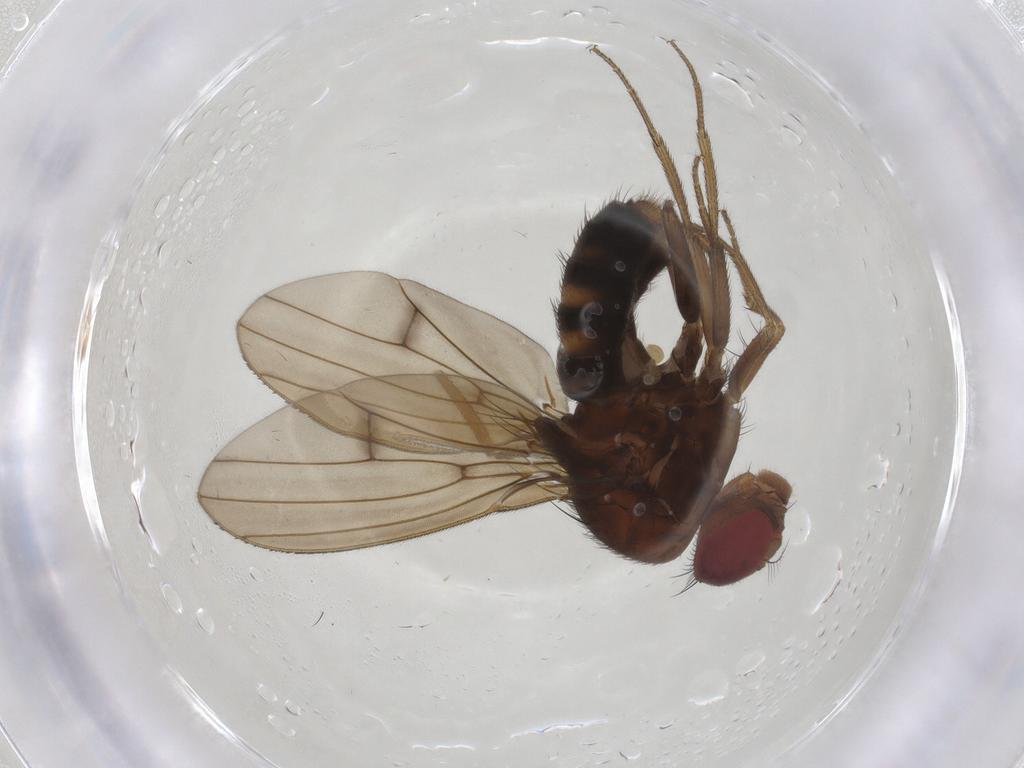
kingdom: Animalia
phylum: Arthropoda
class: Insecta
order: Diptera
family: Drosophilidae
